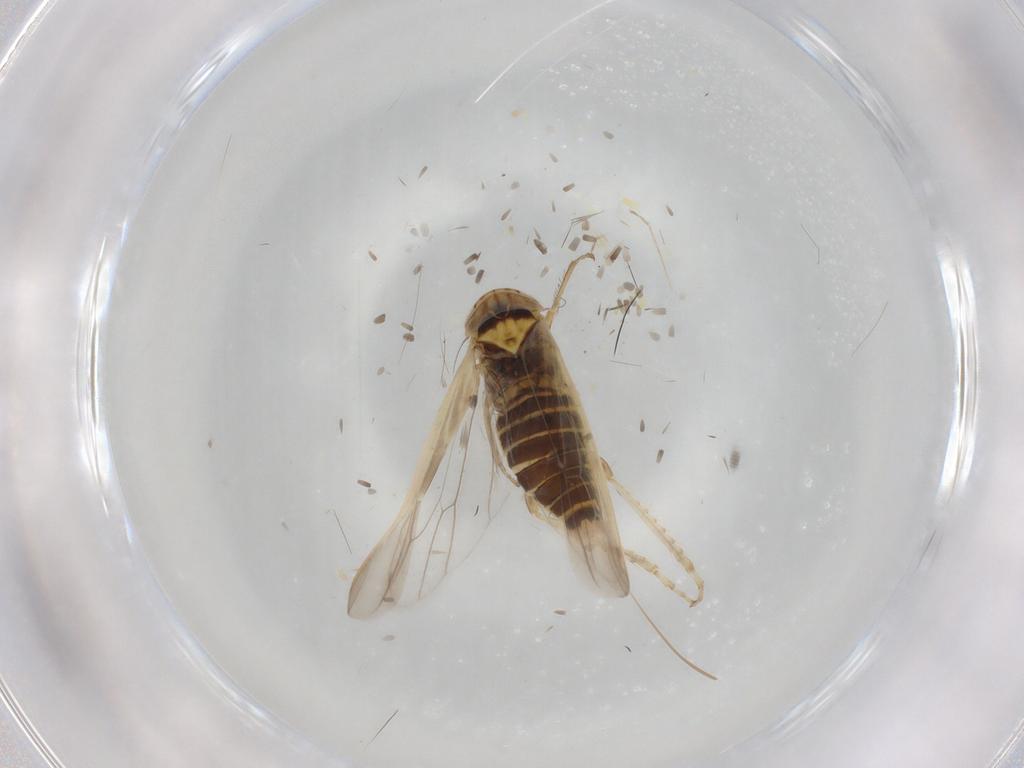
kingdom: Animalia
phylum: Arthropoda
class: Insecta
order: Hemiptera
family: Cicadellidae
